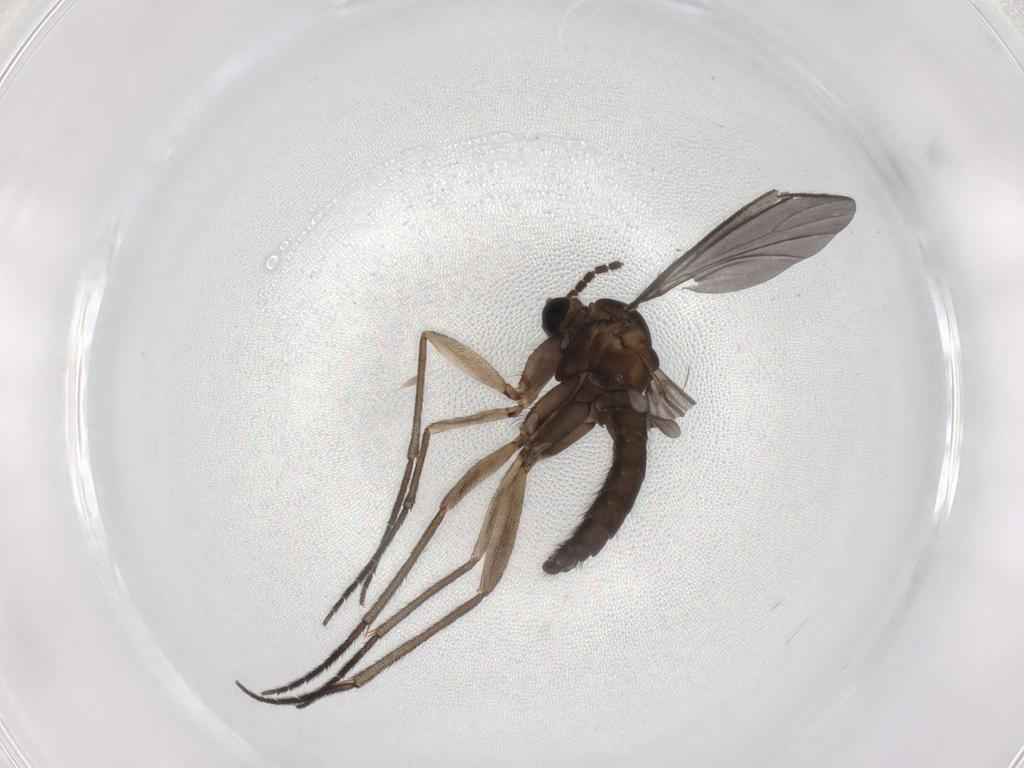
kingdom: Animalia
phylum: Arthropoda
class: Insecta
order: Diptera
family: Sciaridae
